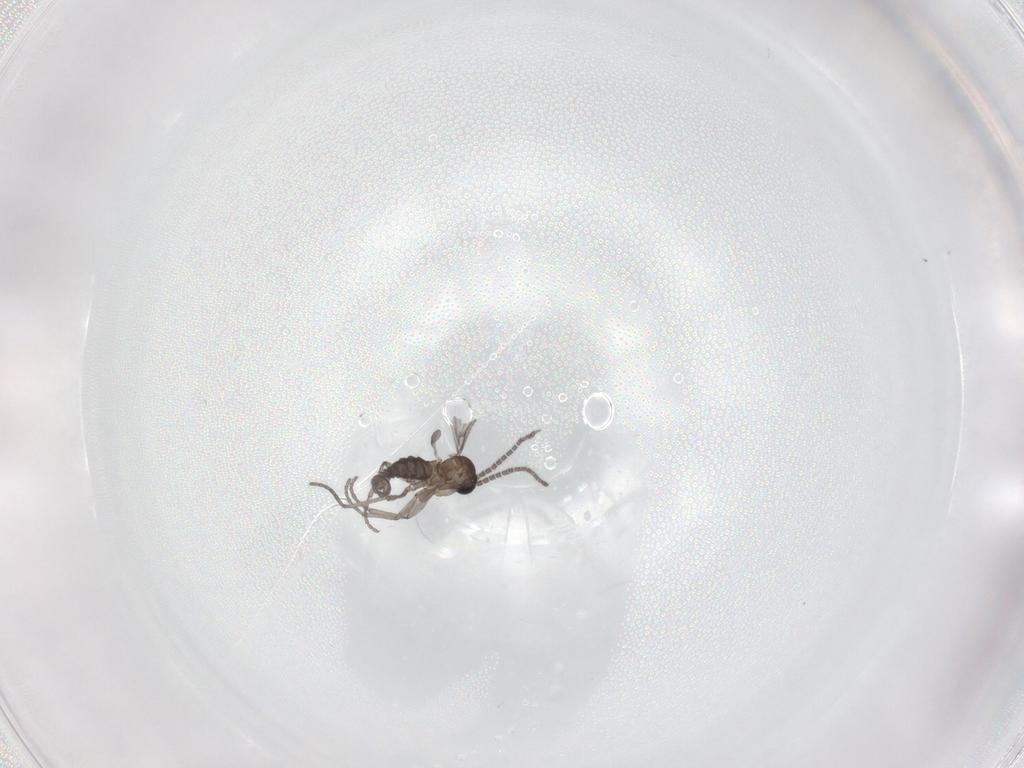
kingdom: Animalia
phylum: Arthropoda
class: Insecta
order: Diptera
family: Sciaridae
